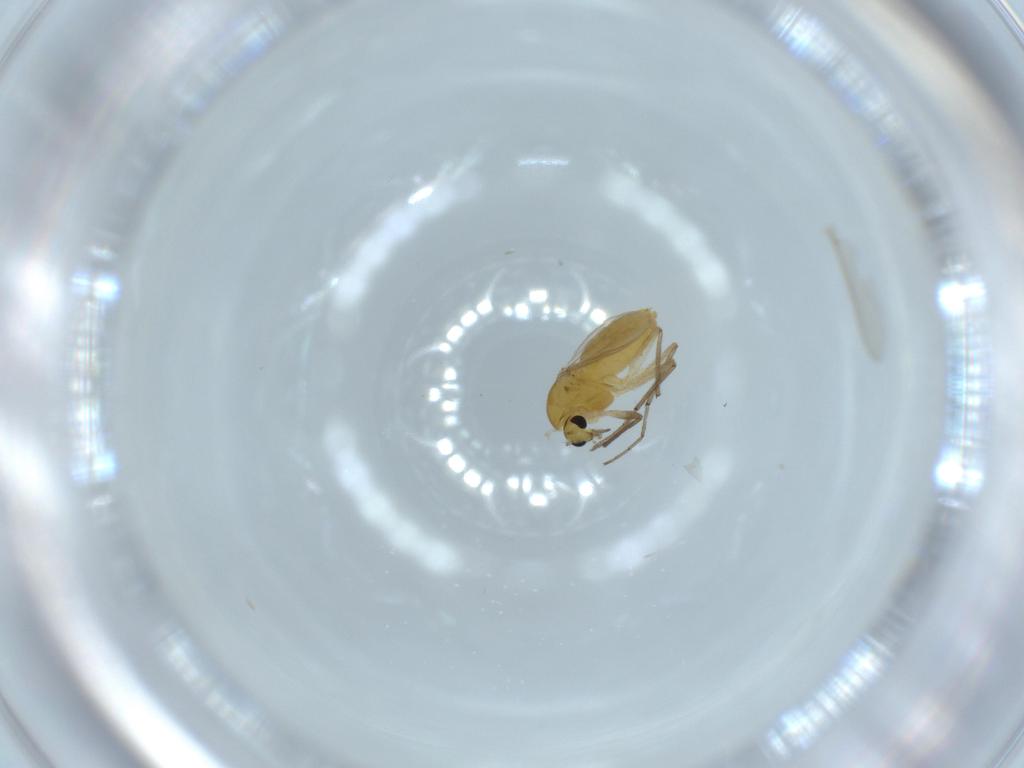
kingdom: Animalia
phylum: Arthropoda
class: Insecta
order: Diptera
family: Chironomidae
